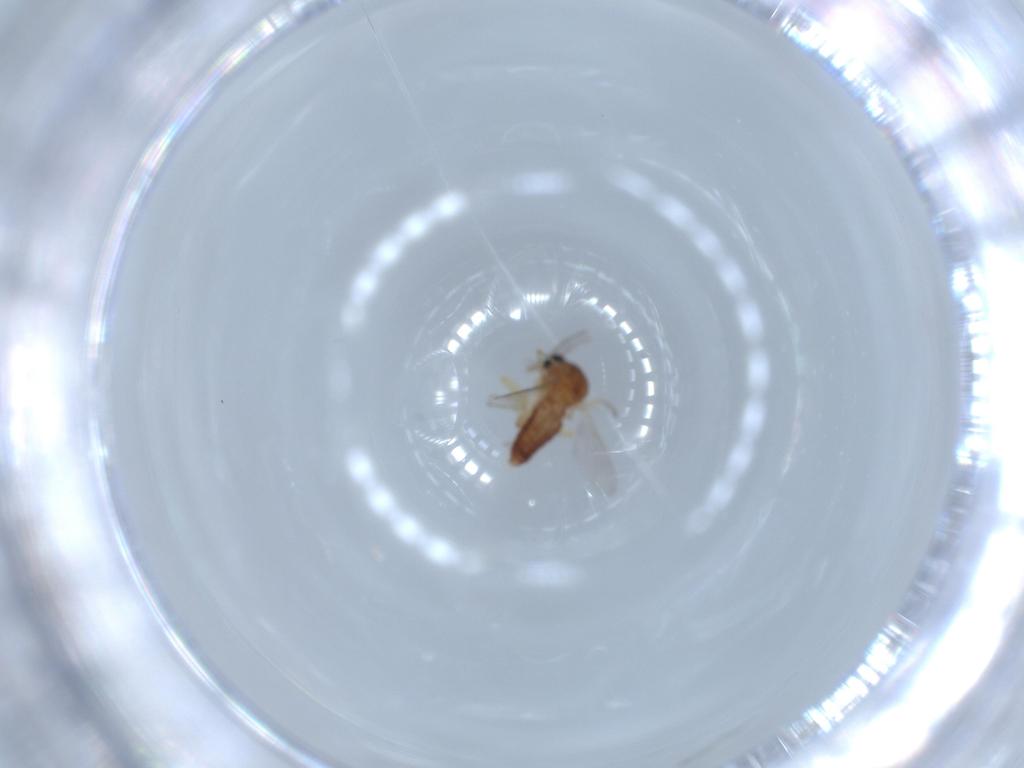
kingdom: Animalia
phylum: Arthropoda
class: Insecta
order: Diptera
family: Ceratopogonidae
